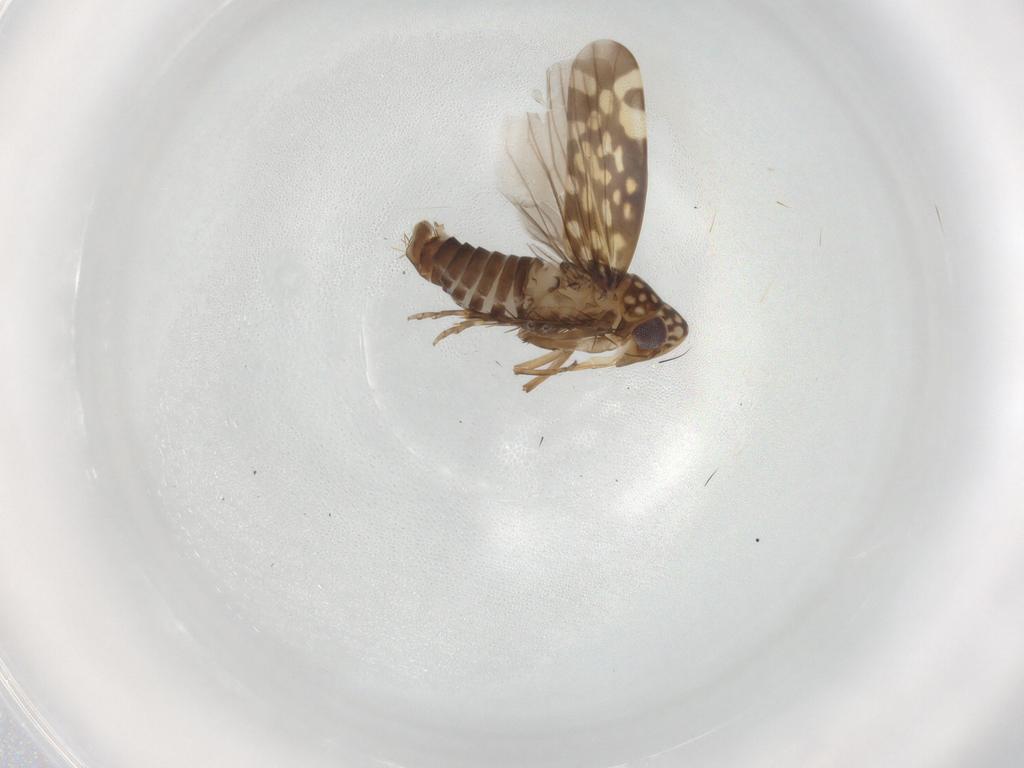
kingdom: Animalia
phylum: Arthropoda
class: Insecta
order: Hemiptera
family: Cicadellidae
